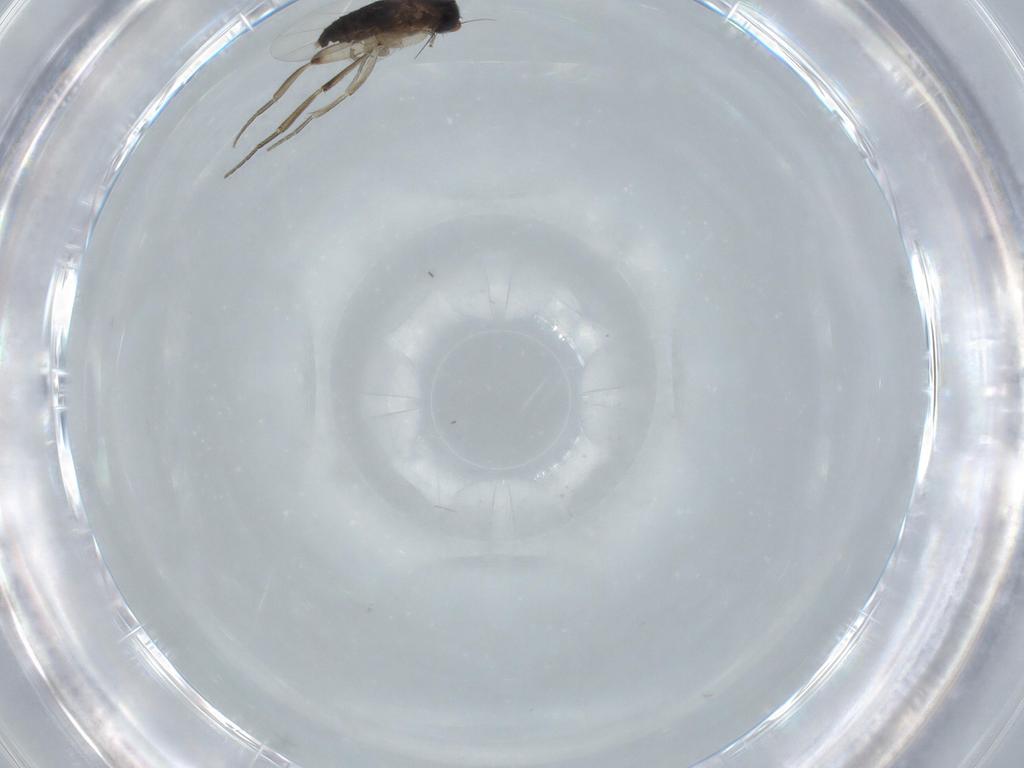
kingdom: Animalia
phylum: Arthropoda
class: Insecta
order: Diptera
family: Phoridae
